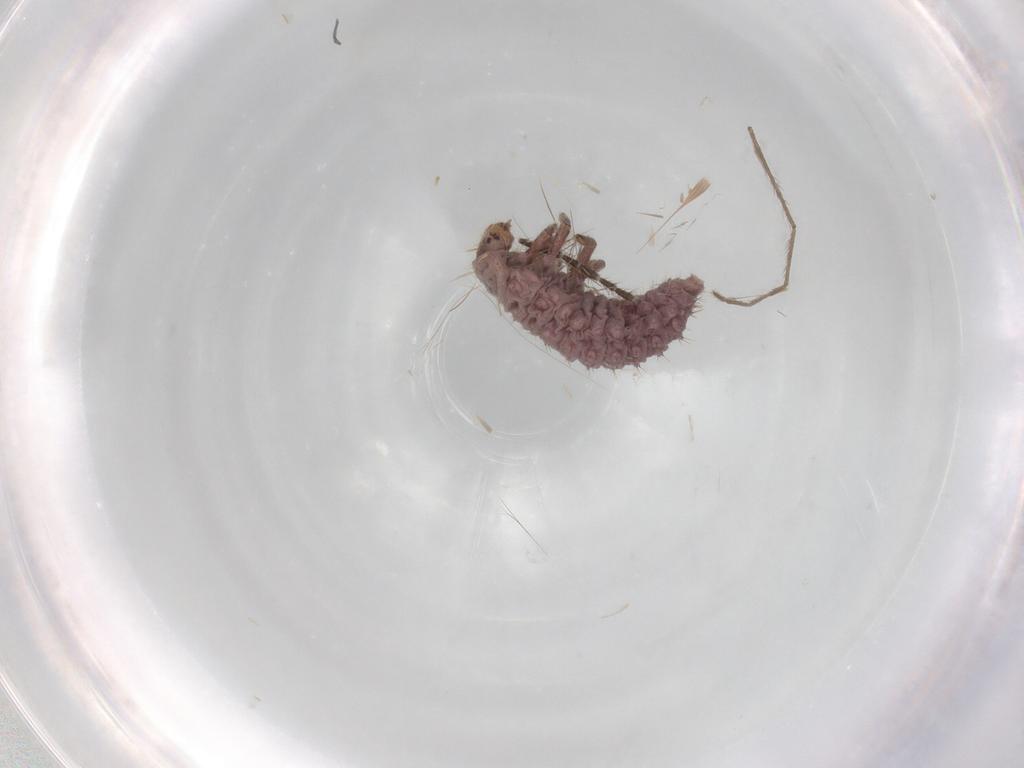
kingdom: Animalia
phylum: Arthropoda
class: Insecta
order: Coleoptera
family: Coccinellidae
